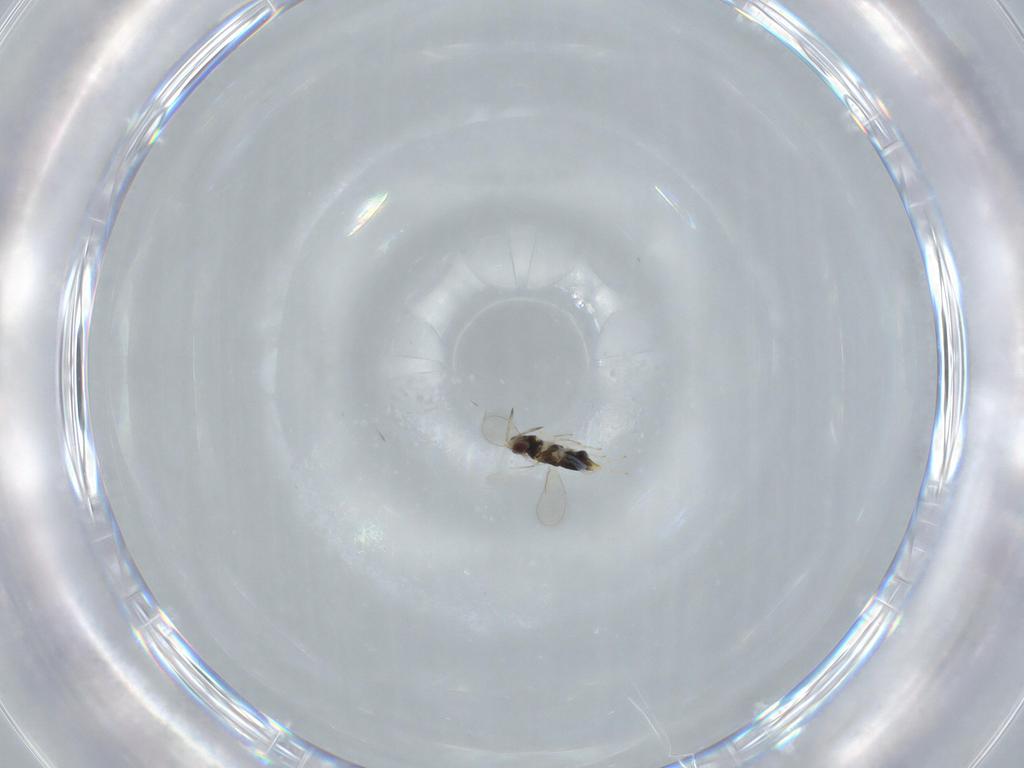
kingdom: Animalia
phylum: Arthropoda
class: Insecta
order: Hymenoptera
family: Aphelinidae
